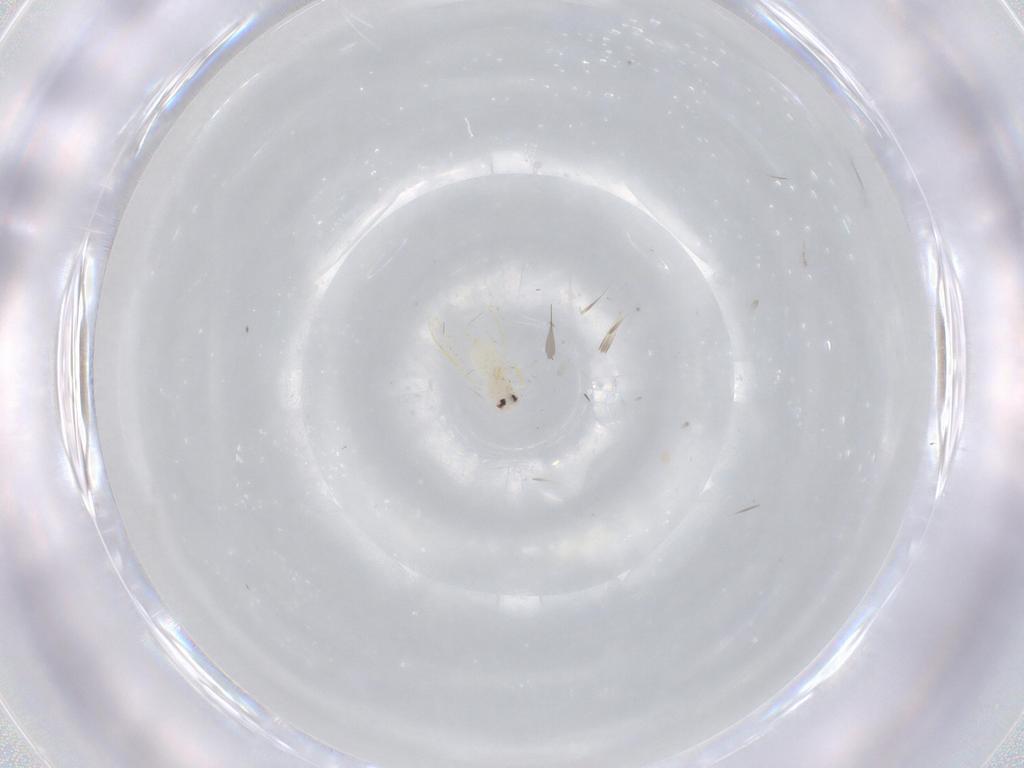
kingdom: Animalia
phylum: Arthropoda
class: Insecta
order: Hemiptera
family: Aleyrodidae
